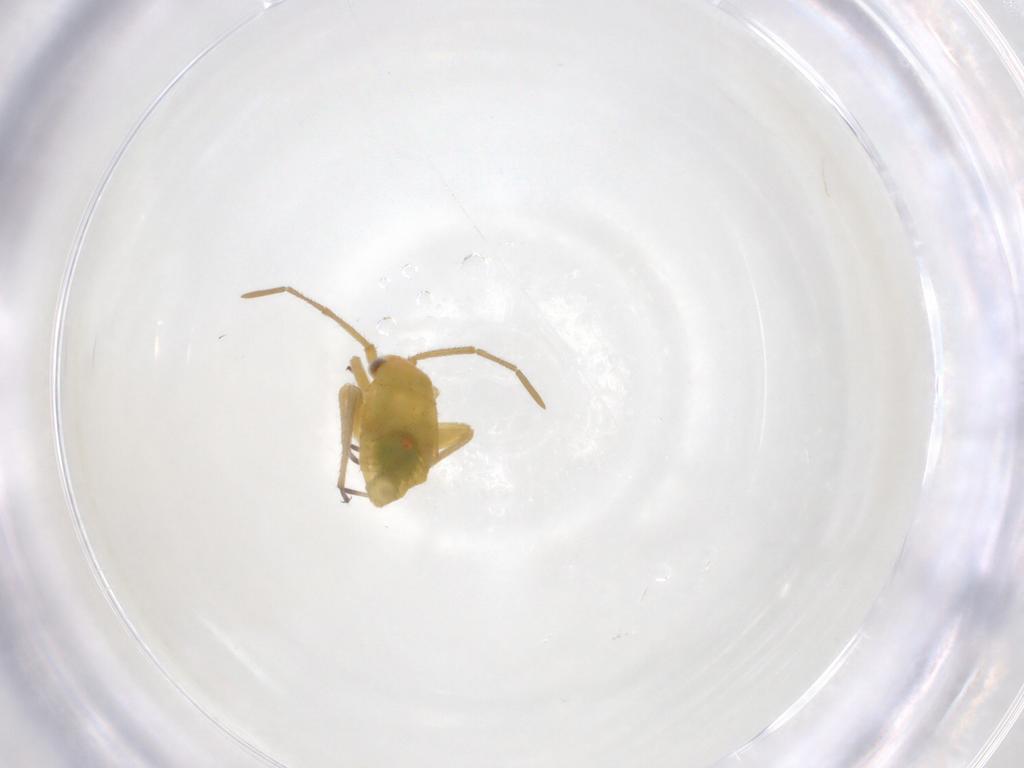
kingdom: Animalia
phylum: Arthropoda
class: Insecta
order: Hemiptera
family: Miridae
